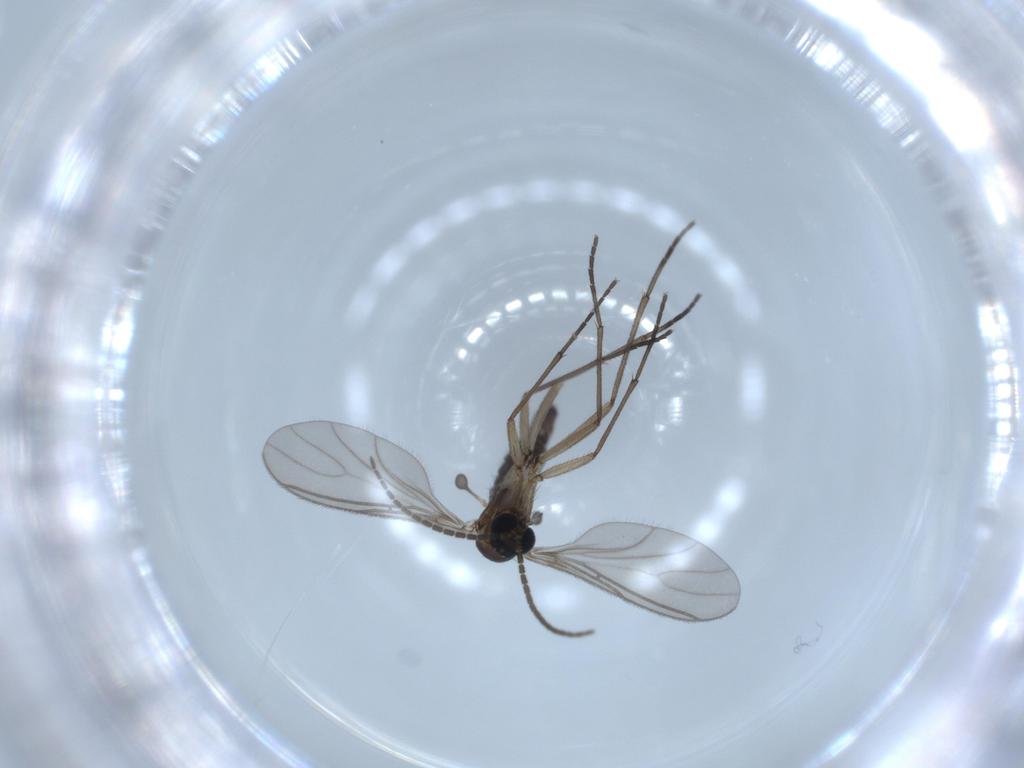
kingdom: Animalia
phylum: Arthropoda
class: Insecta
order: Diptera
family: Sciaridae
